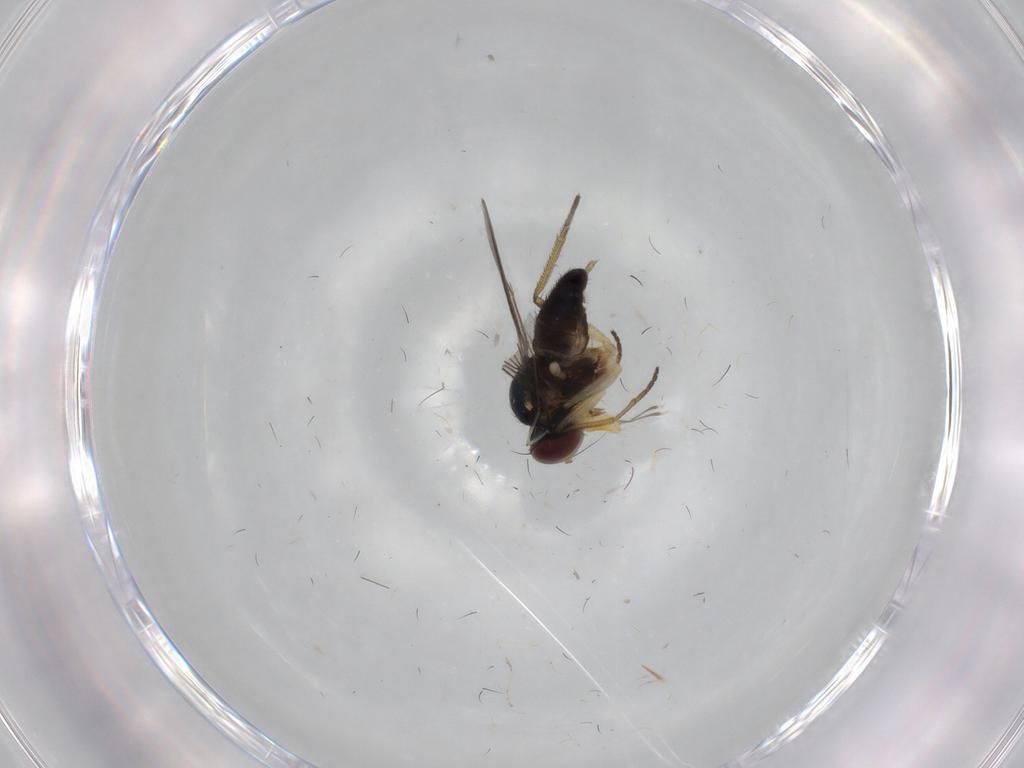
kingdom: Animalia
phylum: Arthropoda
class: Insecta
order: Diptera
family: Dolichopodidae
